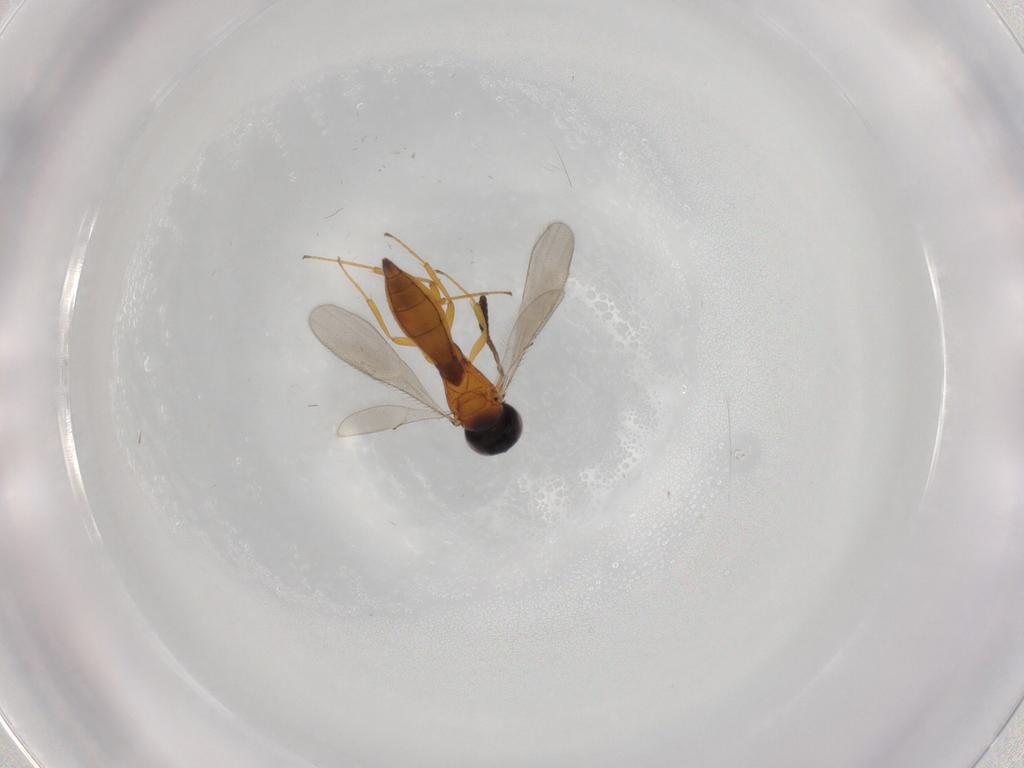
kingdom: Animalia
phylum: Arthropoda
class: Insecta
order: Hymenoptera
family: Scelionidae
